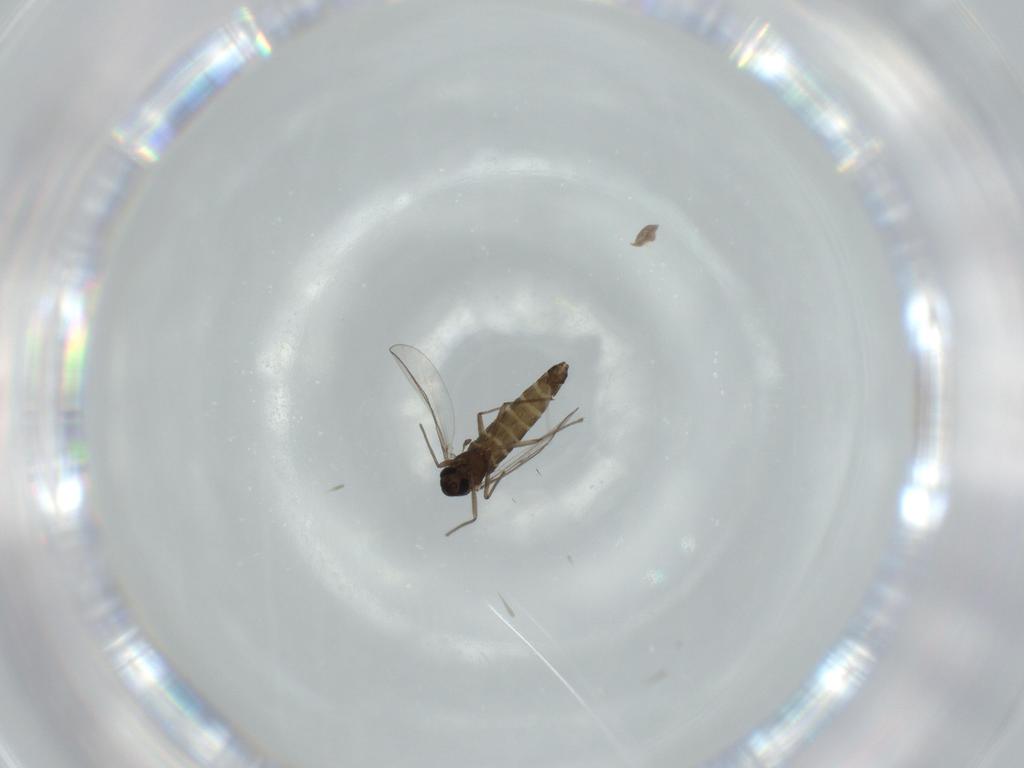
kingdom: Animalia
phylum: Arthropoda
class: Insecta
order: Diptera
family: Chironomidae
